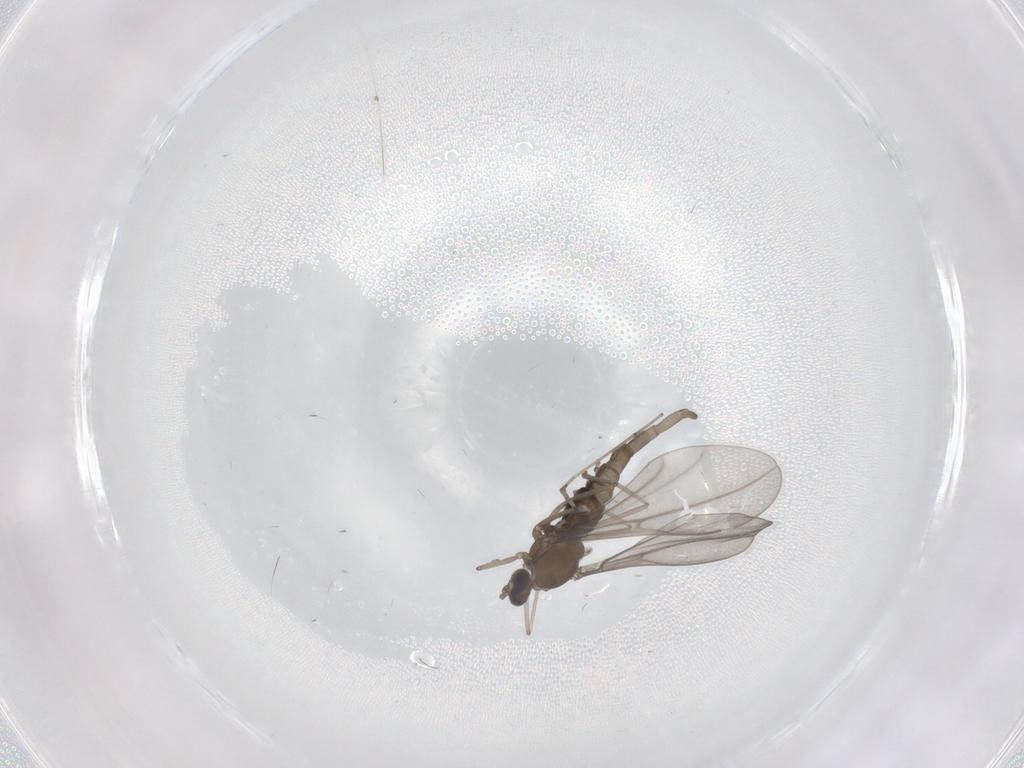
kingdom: Animalia
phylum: Arthropoda
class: Insecta
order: Diptera
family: Cecidomyiidae
